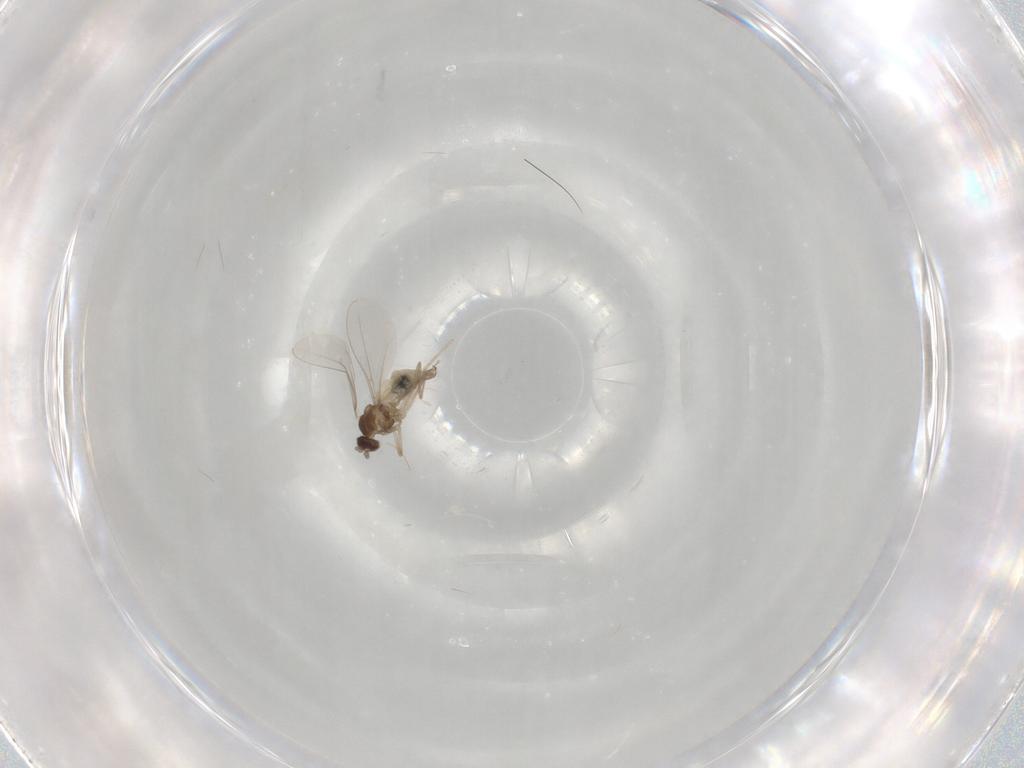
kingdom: Animalia
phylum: Arthropoda
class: Insecta
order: Diptera
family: Cecidomyiidae
